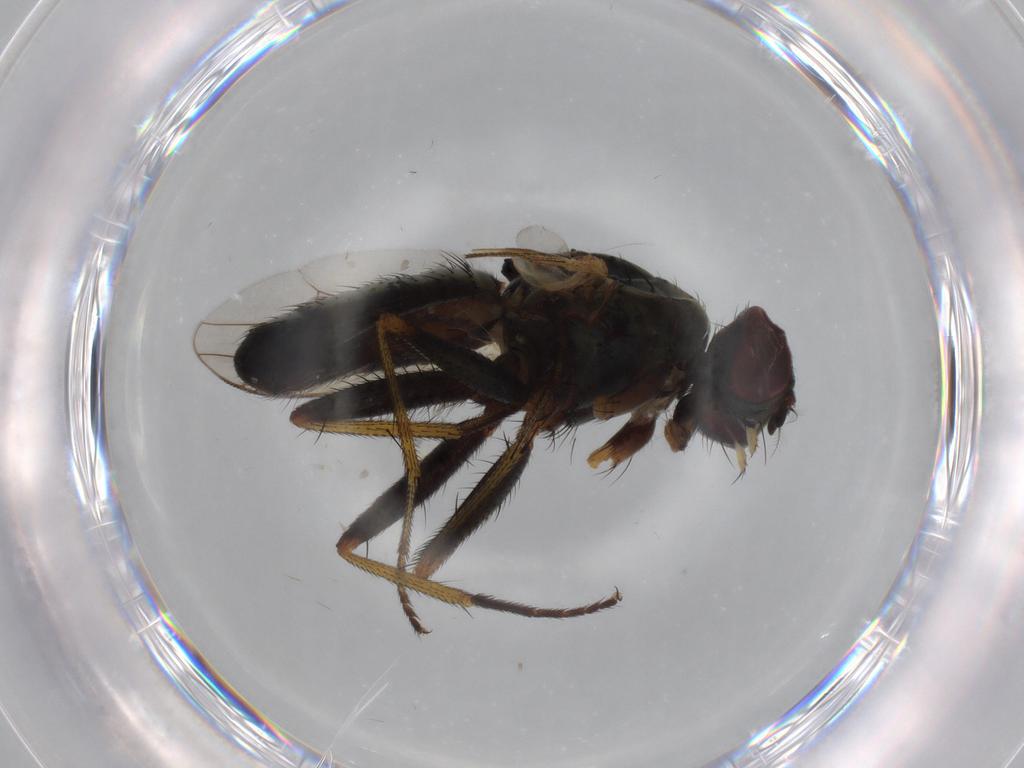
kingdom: Animalia
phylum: Arthropoda
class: Insecta
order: Diptera
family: Muscidae
